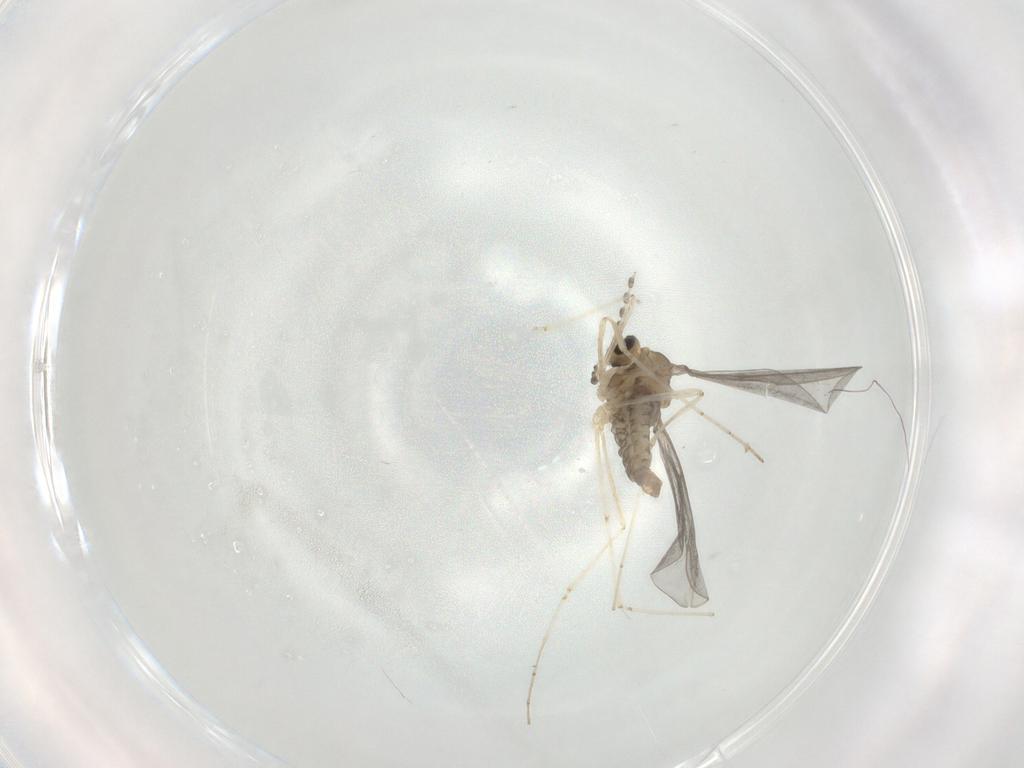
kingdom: Animalia
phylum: Arthropoda
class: Insecta
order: Diptera
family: Cecidomyiidae
